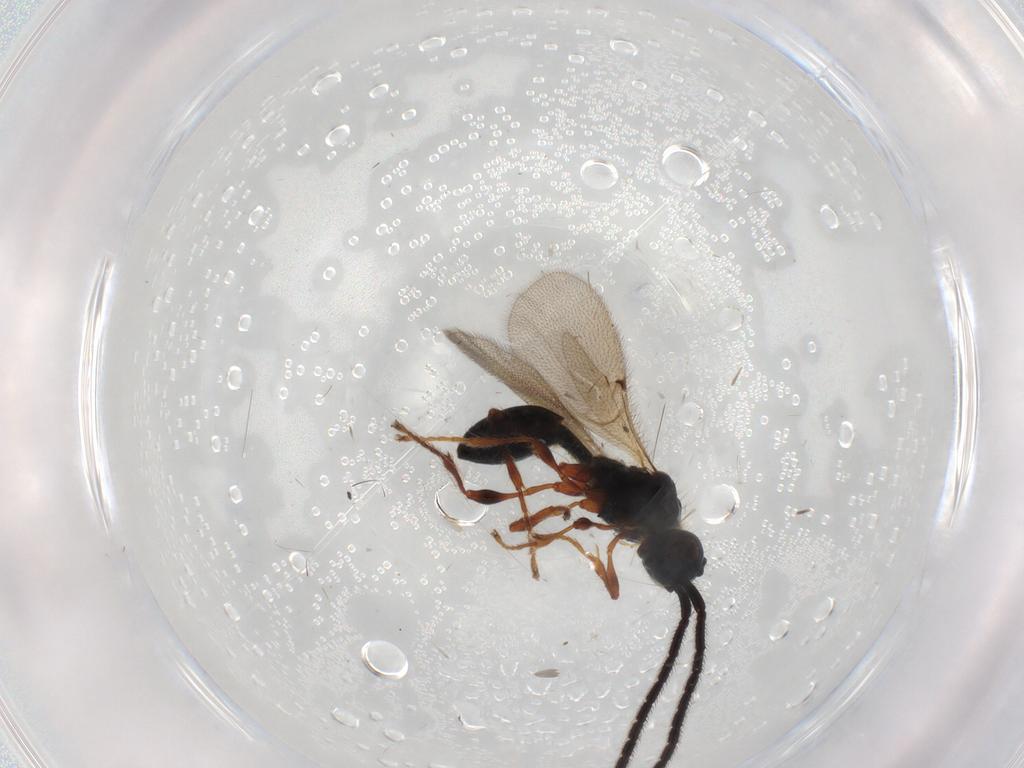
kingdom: Animalia
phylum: Arthropoda
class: Insecta
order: Hymenoptera
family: Diapriidae
